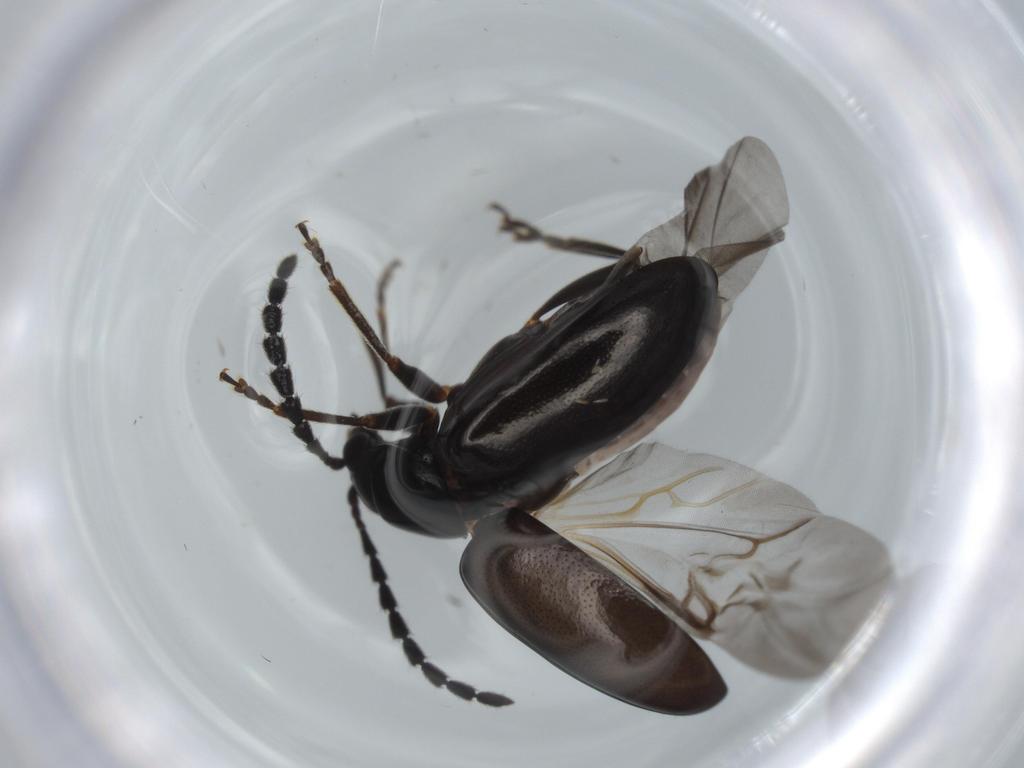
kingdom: Animalia
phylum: Arthropoda
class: Insecta
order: Coleoptera
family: Chrysomelidae
